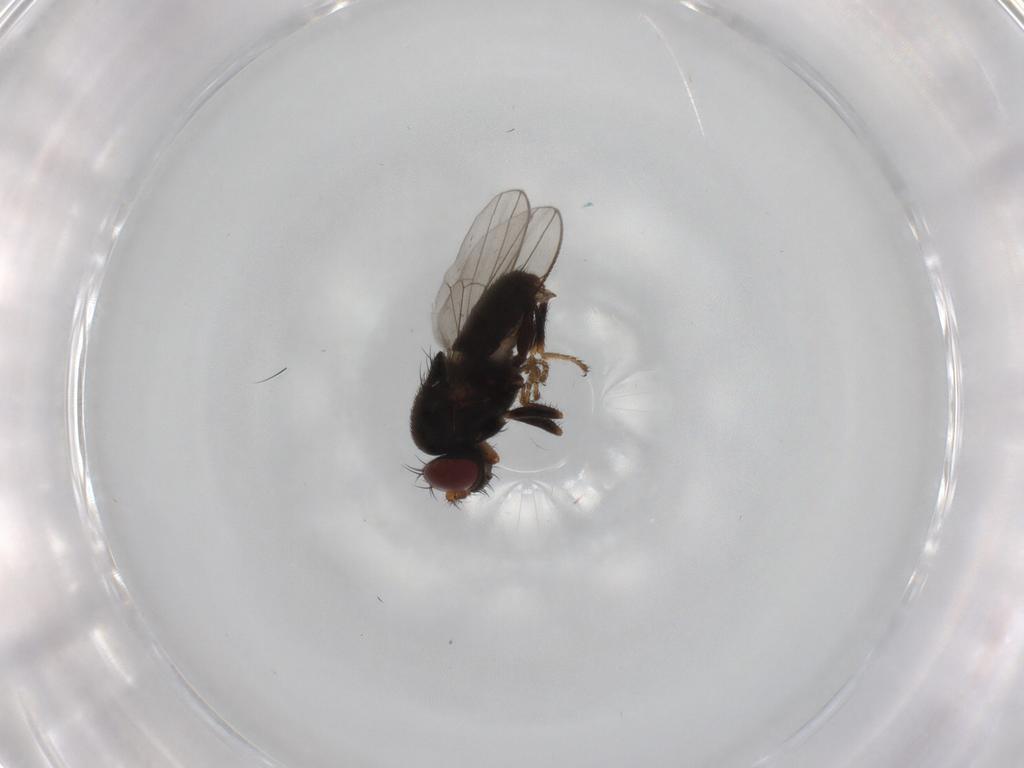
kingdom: Animalia
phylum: Arthropoda
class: Insecta
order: Diptera
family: Ephydridae
